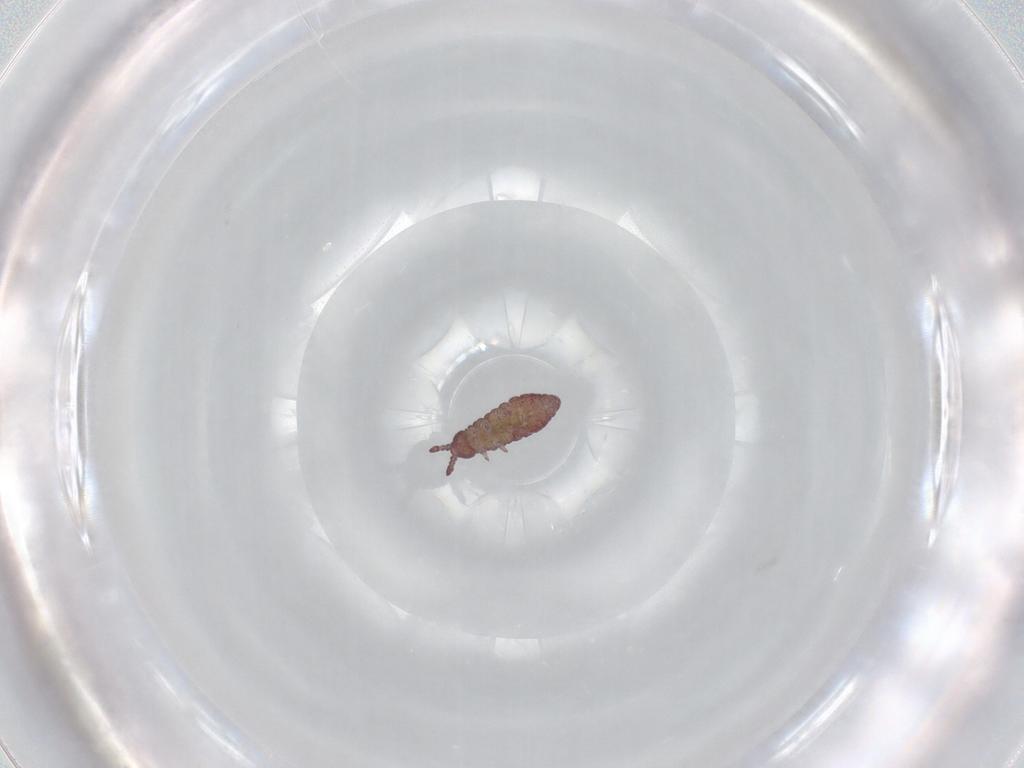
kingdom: Animalia
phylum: Arthropoda
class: Collembola
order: Poduromorpha
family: Hypogastruridae
